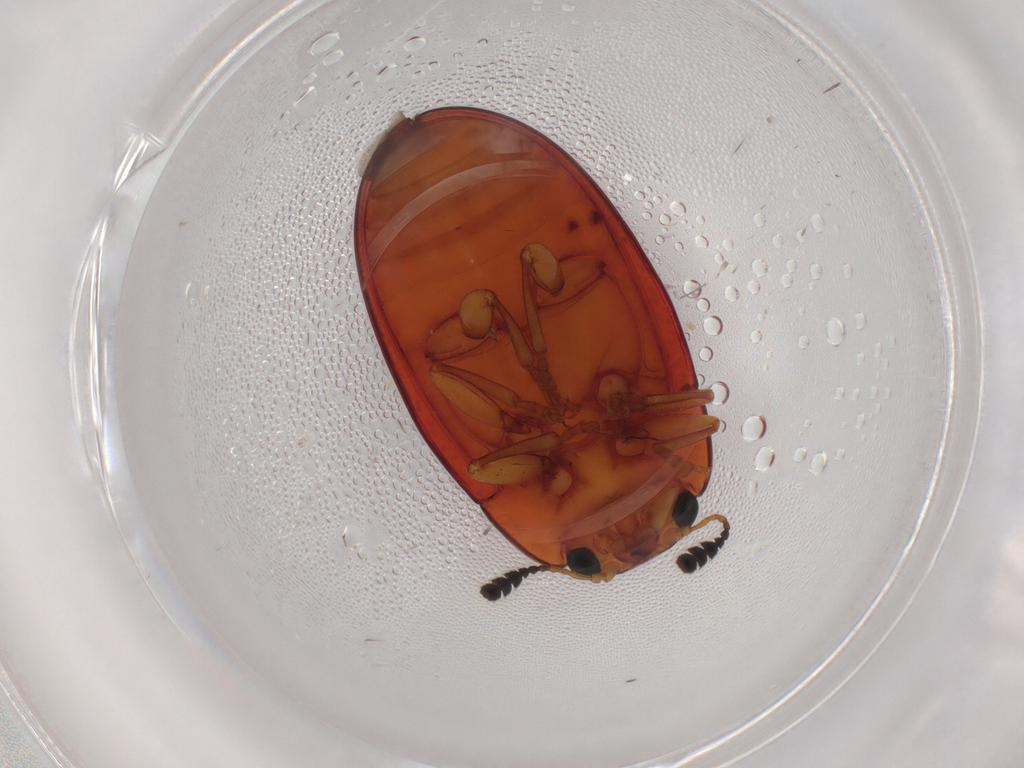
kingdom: Animalia
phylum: Arthropoda
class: Insecta
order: Coleoptera
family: Erotylidae
